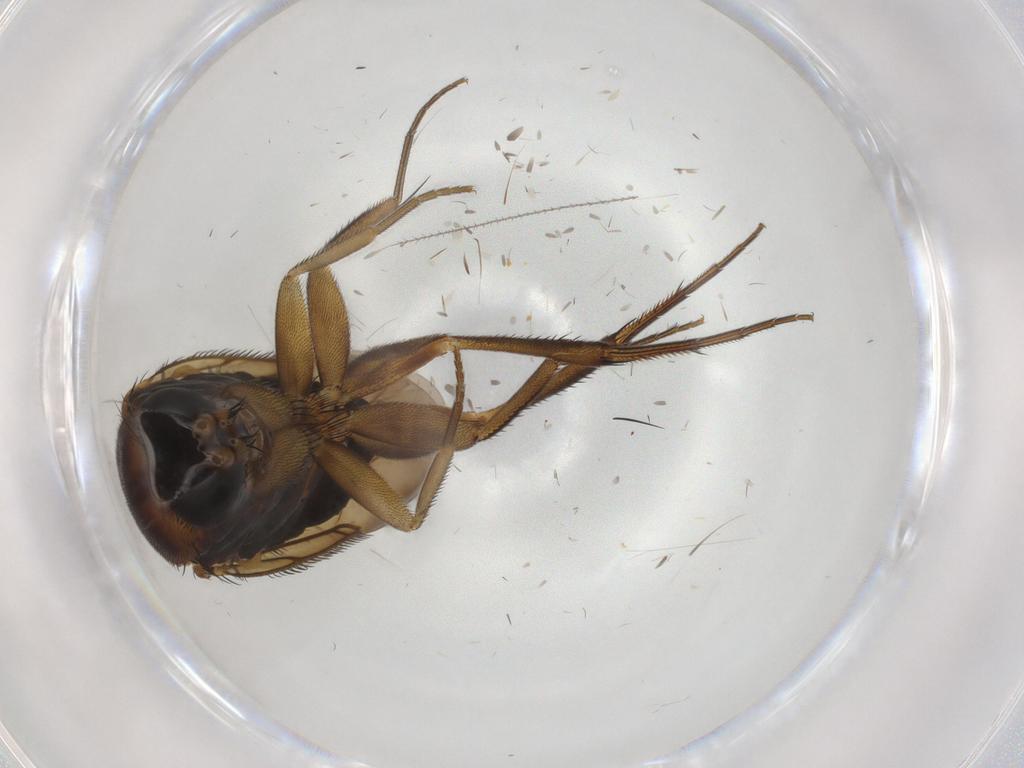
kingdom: Animalia
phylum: Arthropoda
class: Insecta
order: Diptera
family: Phoridae
